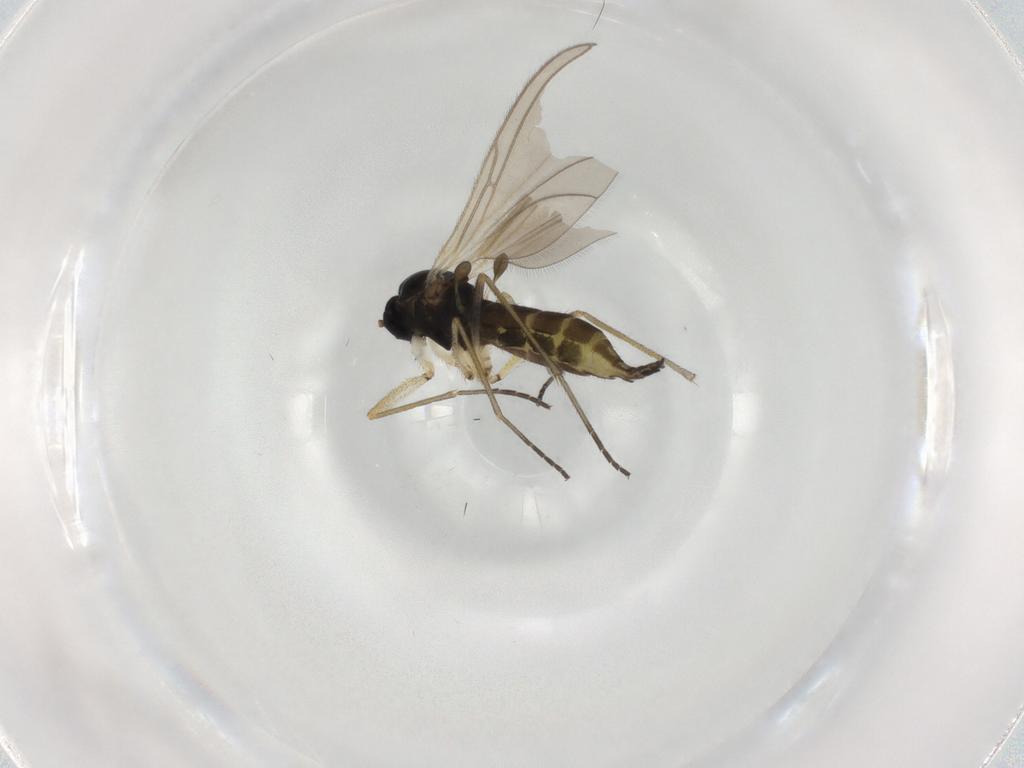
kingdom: Animalia
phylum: Arthropoda
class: Insecta
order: Diptera
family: Sciaridae
